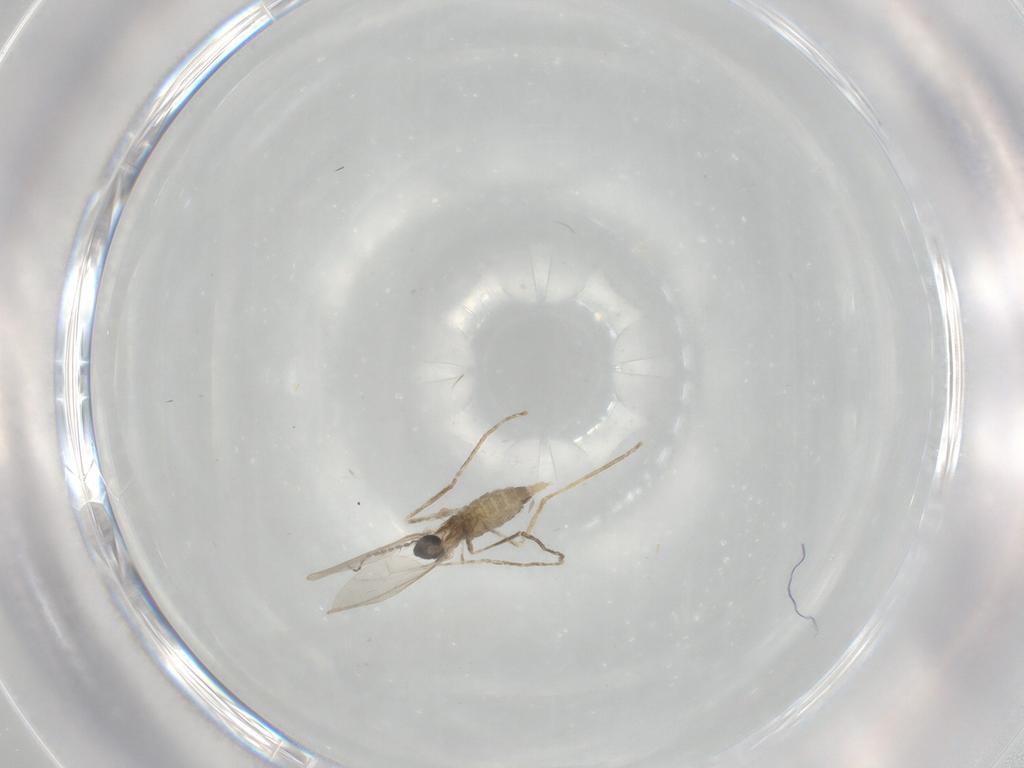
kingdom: Animalia
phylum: Arthropoda
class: Insecta
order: Diptera
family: Cecidomyiidae
